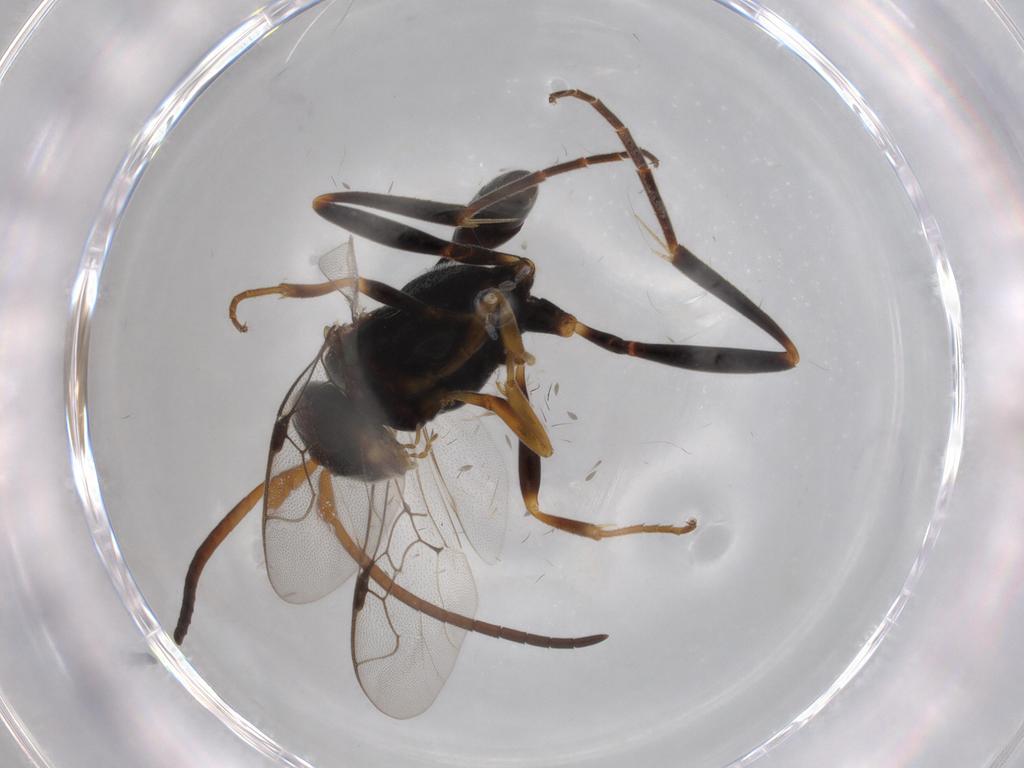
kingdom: Animalia
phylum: Arthropoda
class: Insecta
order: Hymenoptera
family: Evaniidae
